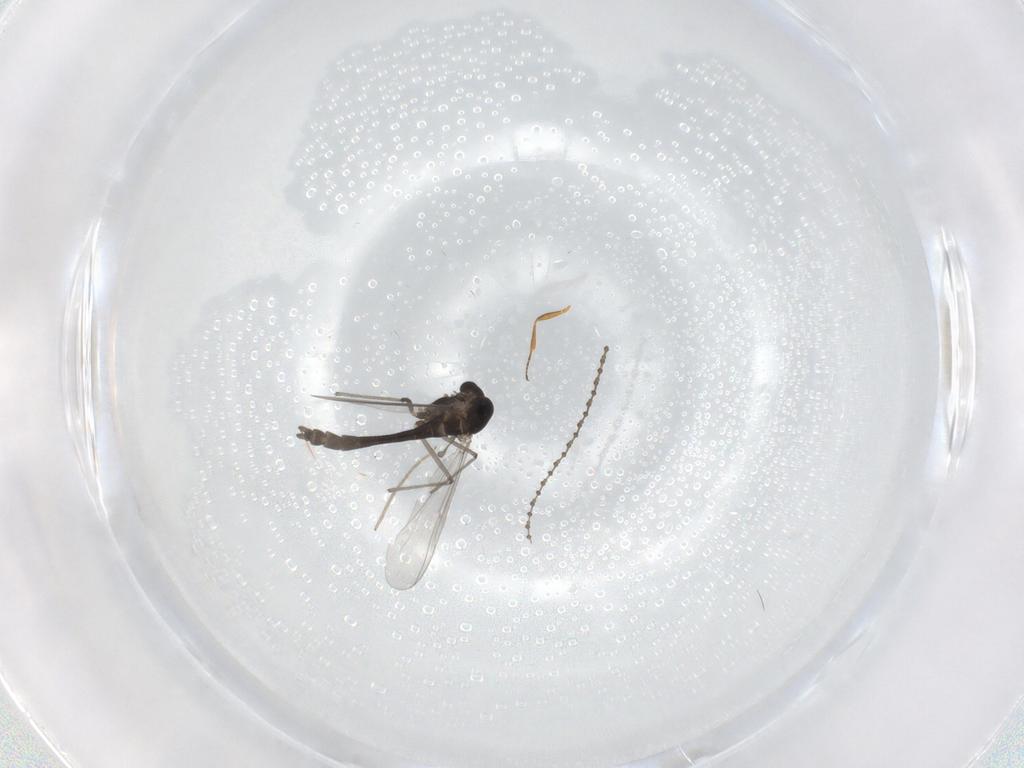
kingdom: Animalia
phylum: Arthropoda
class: Insecta
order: Diptera
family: Chironomidae
